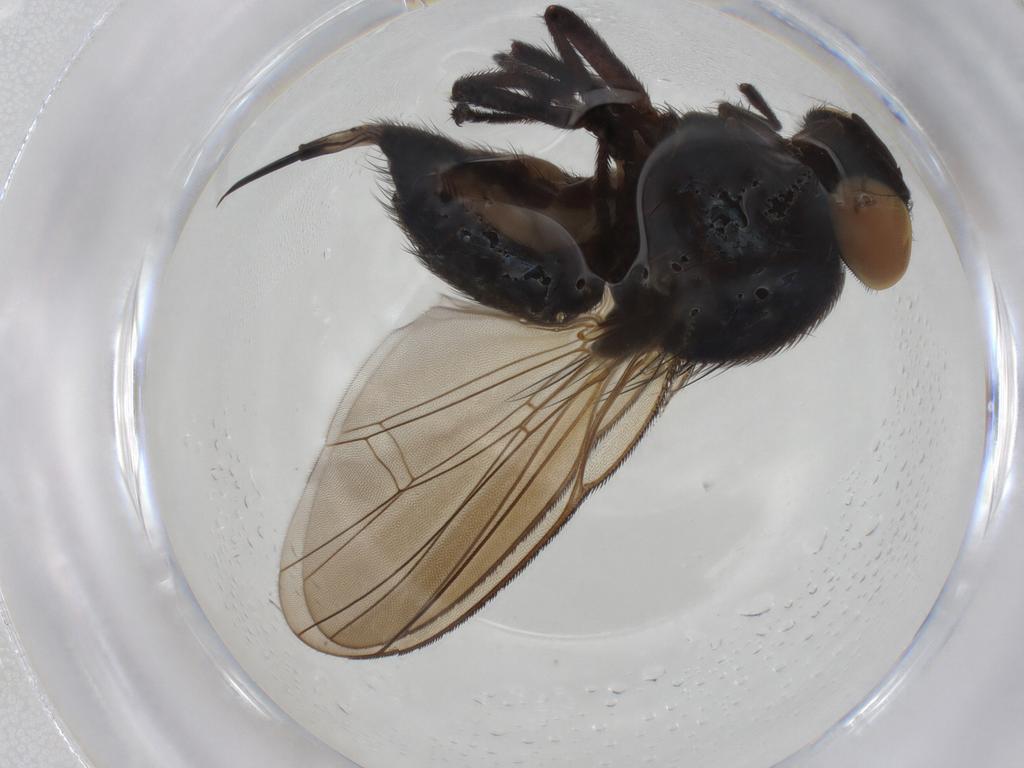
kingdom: Animalia
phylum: Arthropoda
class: Insecta
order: Diptera
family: Lonchaeidae
